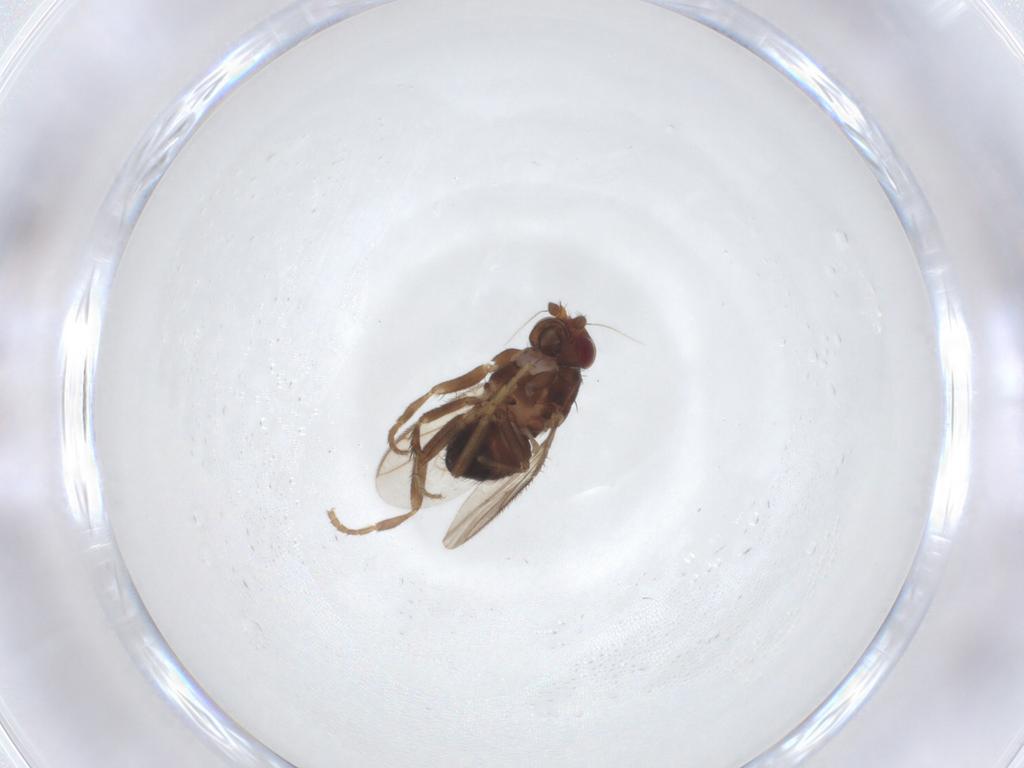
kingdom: Animalia
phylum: Arthropoda
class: Insecta
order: Diptera
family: Sphaeroceridae
